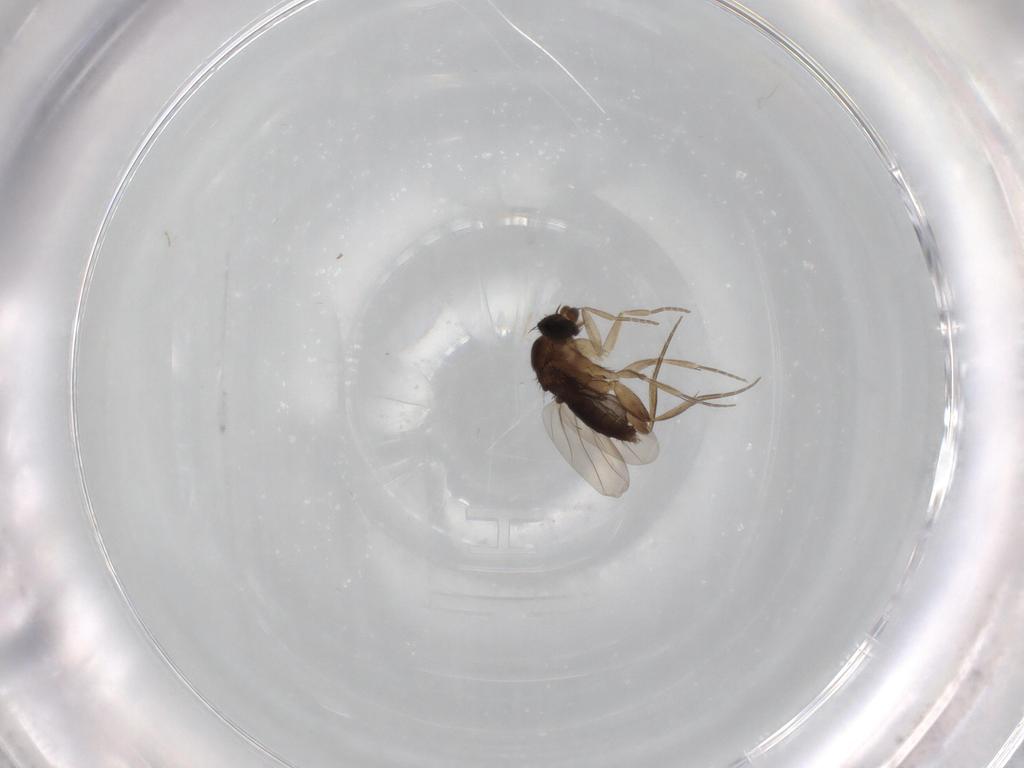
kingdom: Animalia
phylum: Arthropoda
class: Insecta
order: Diptera
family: Phoridae
